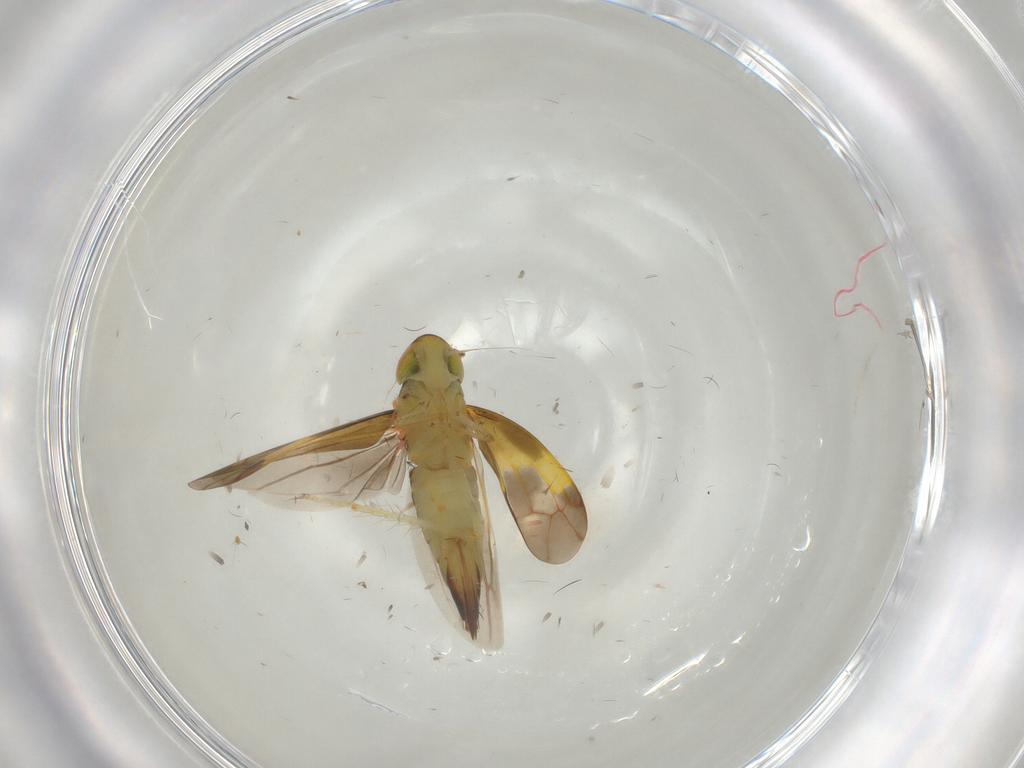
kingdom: Animalia
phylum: Arthropoda
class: Insecta
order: Hemiptera
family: Cicadellidae
